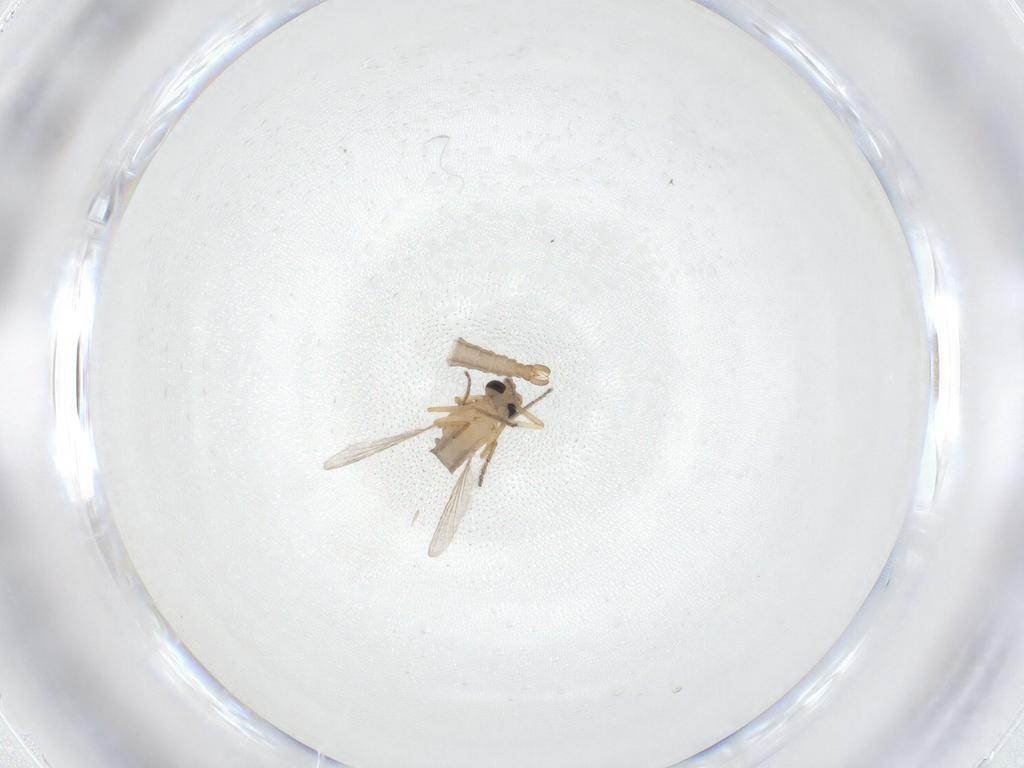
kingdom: Animalia
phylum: Arthropoda
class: Insecta
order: Diptera
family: Ceratopogonidae
